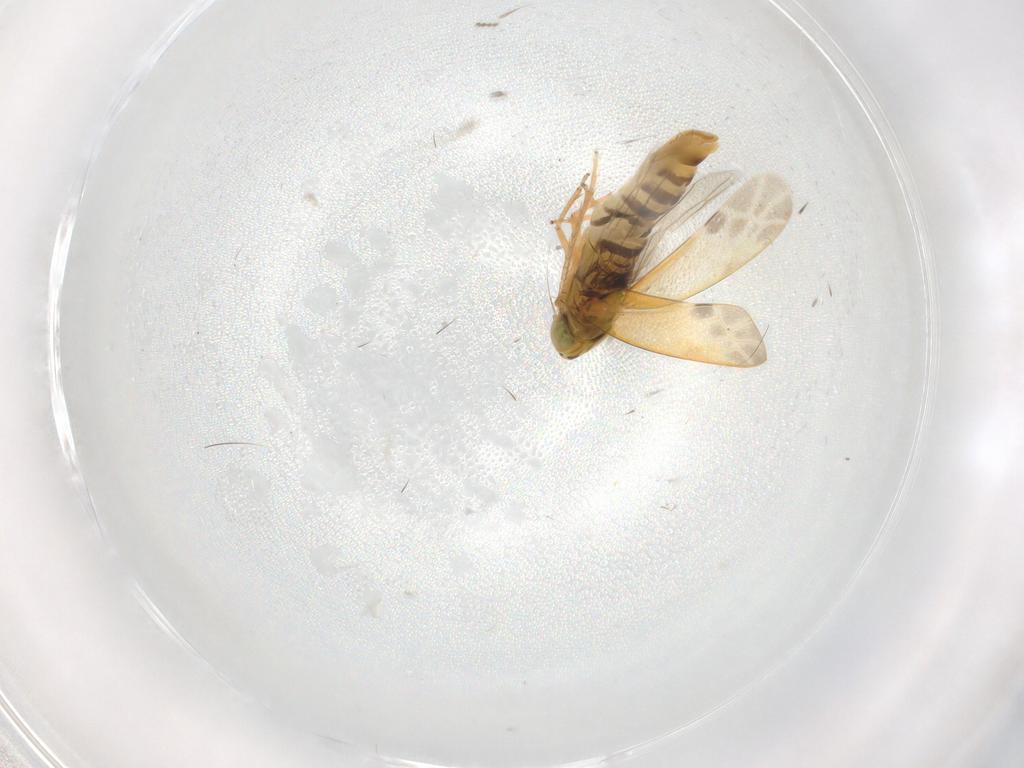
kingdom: Animalia
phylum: Arthropoda
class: Insecta
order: Hemiptera
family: Cicadellidae
